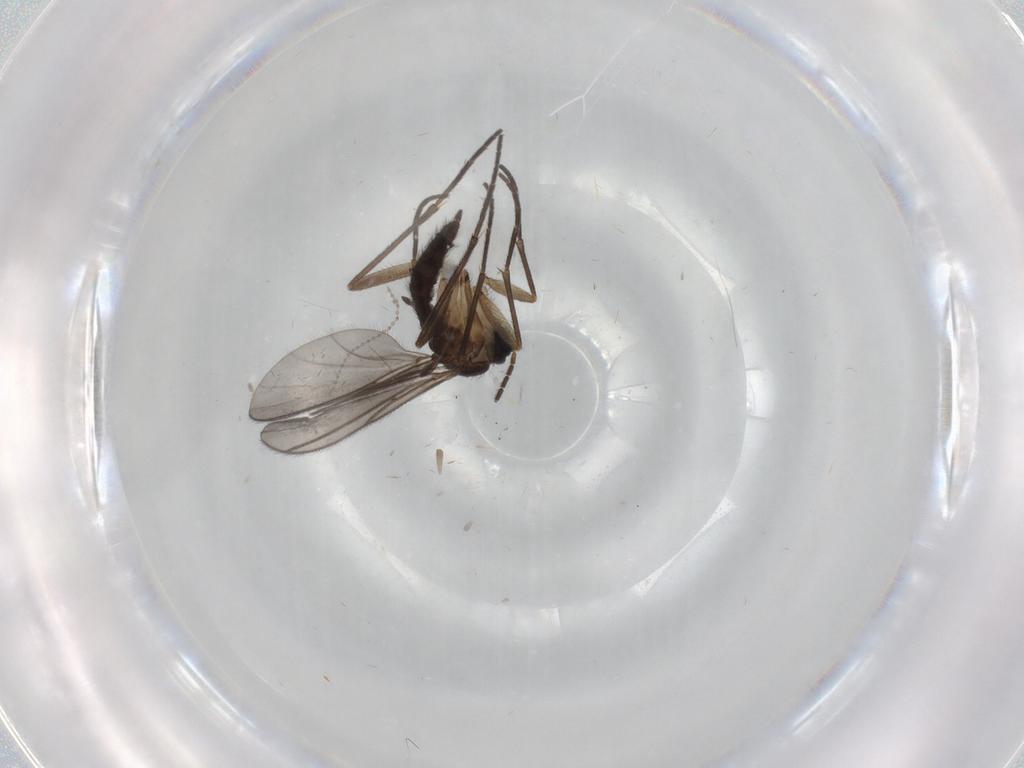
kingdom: Animalia
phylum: Arthropoda
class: Insecta
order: Diptera
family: Sciaridae
